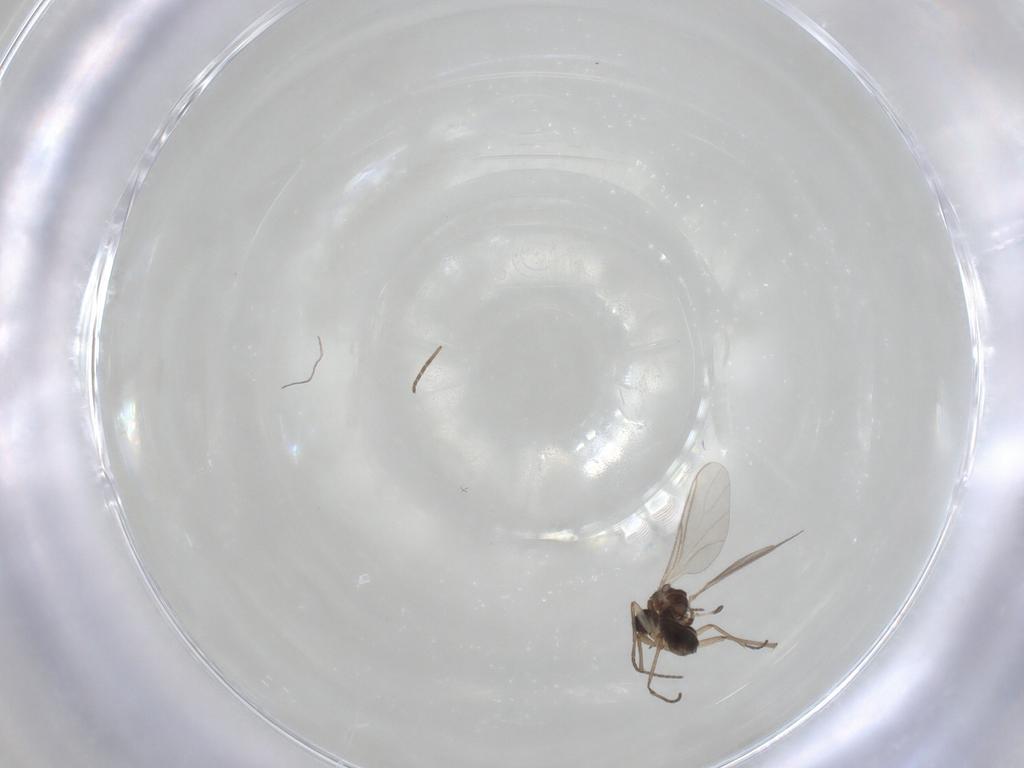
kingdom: Animalia
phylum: Arthropoda
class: Insecta
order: Diptera
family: Sciaridae
